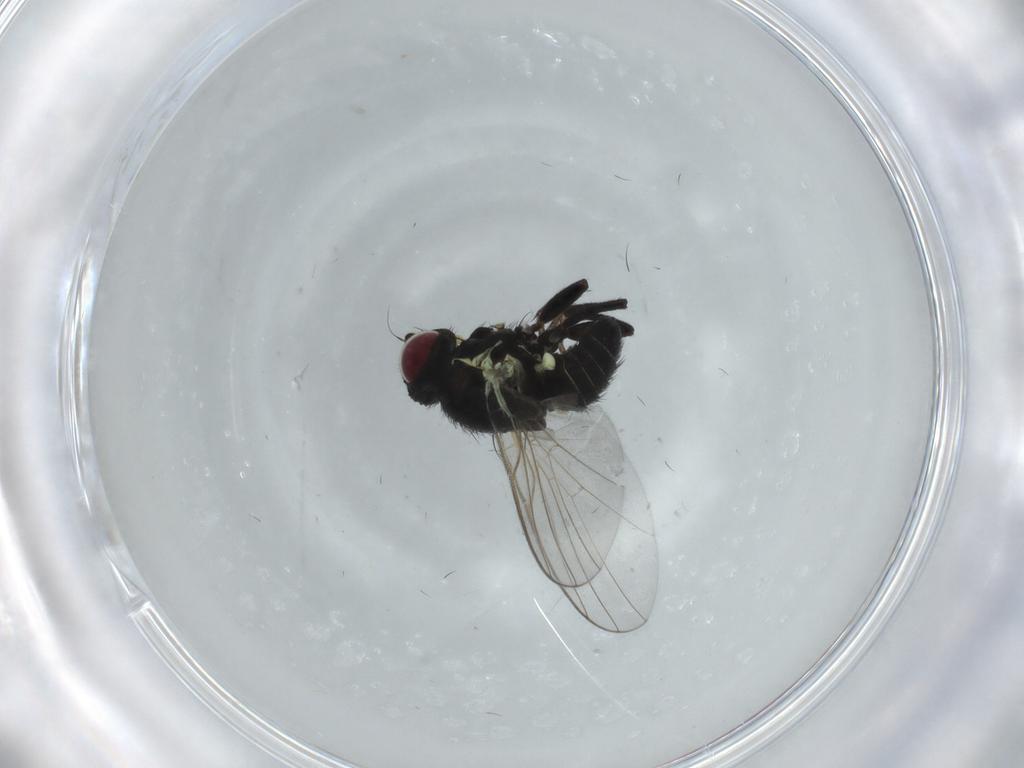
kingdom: Animalia
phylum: Arthropoda
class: Insecta
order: Diptera
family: Agromyzidae
